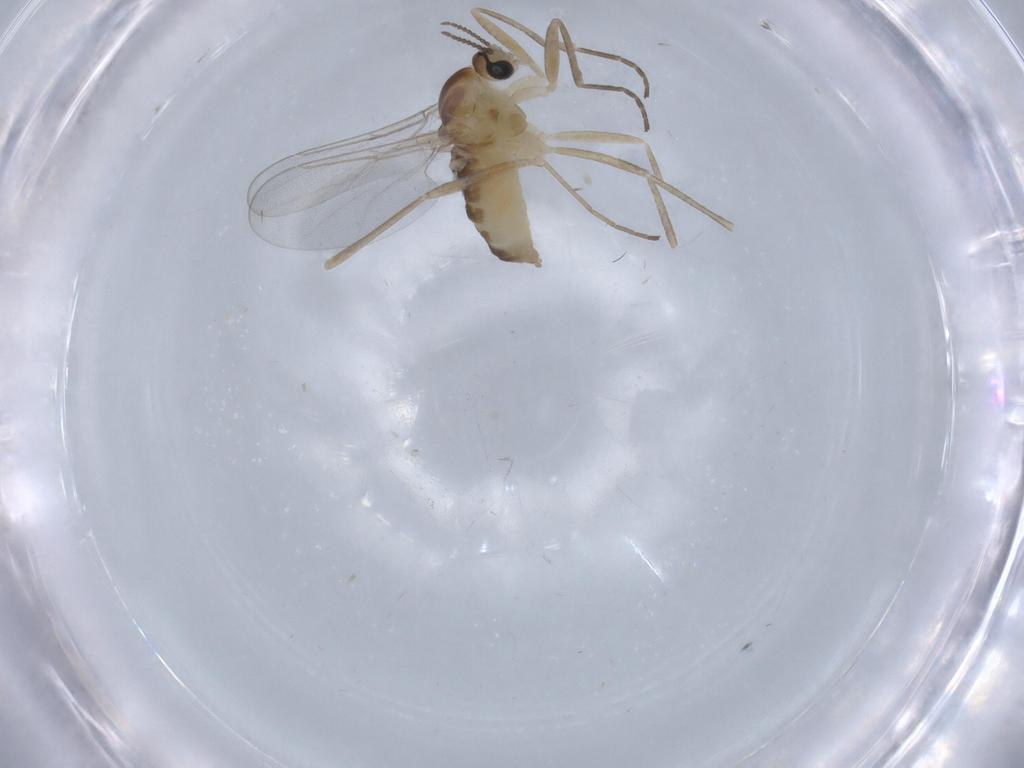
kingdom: Animalia
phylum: Arthropoda
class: Insecta
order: Diptera
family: Cecidomyiidae
